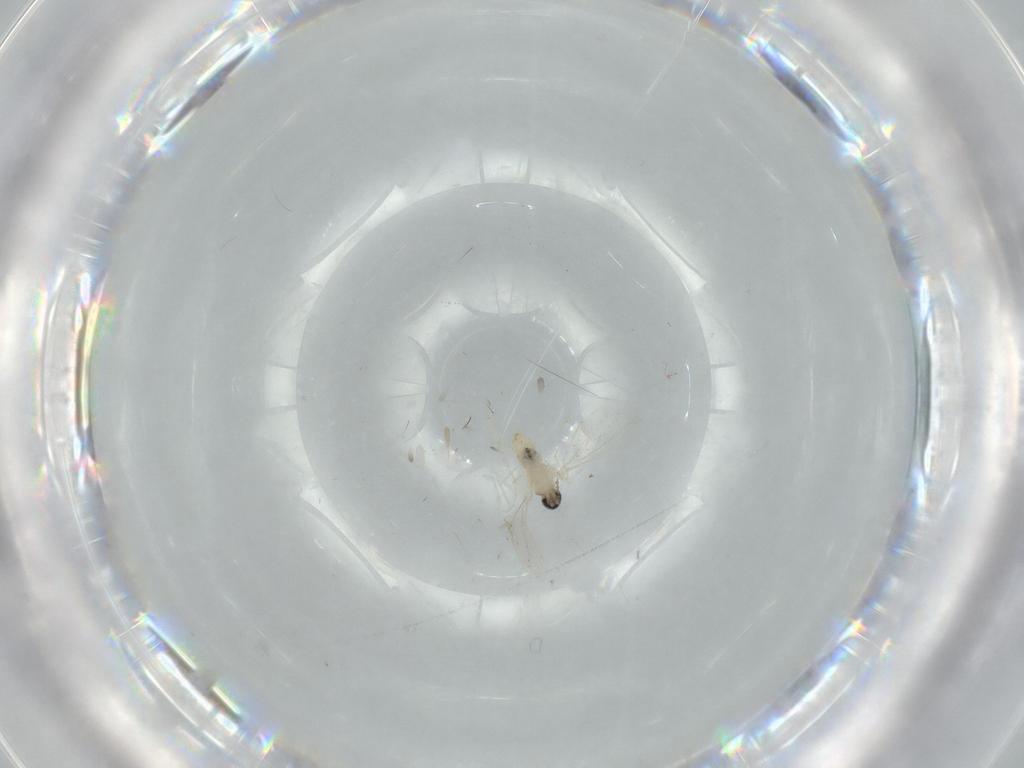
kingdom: Animalia
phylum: Arthropoda
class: Insecta
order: Diptera
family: Cecidomyiidae
